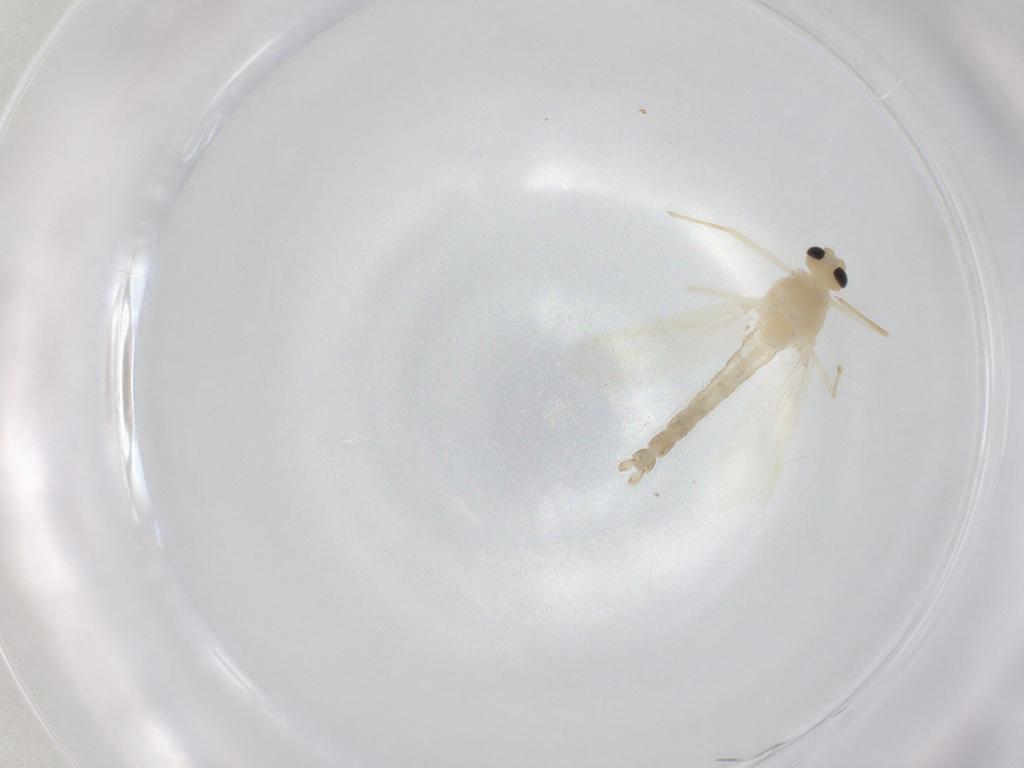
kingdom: Animalia
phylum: Arthropoda
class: Insecta
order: Diptera
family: Chironomidae
